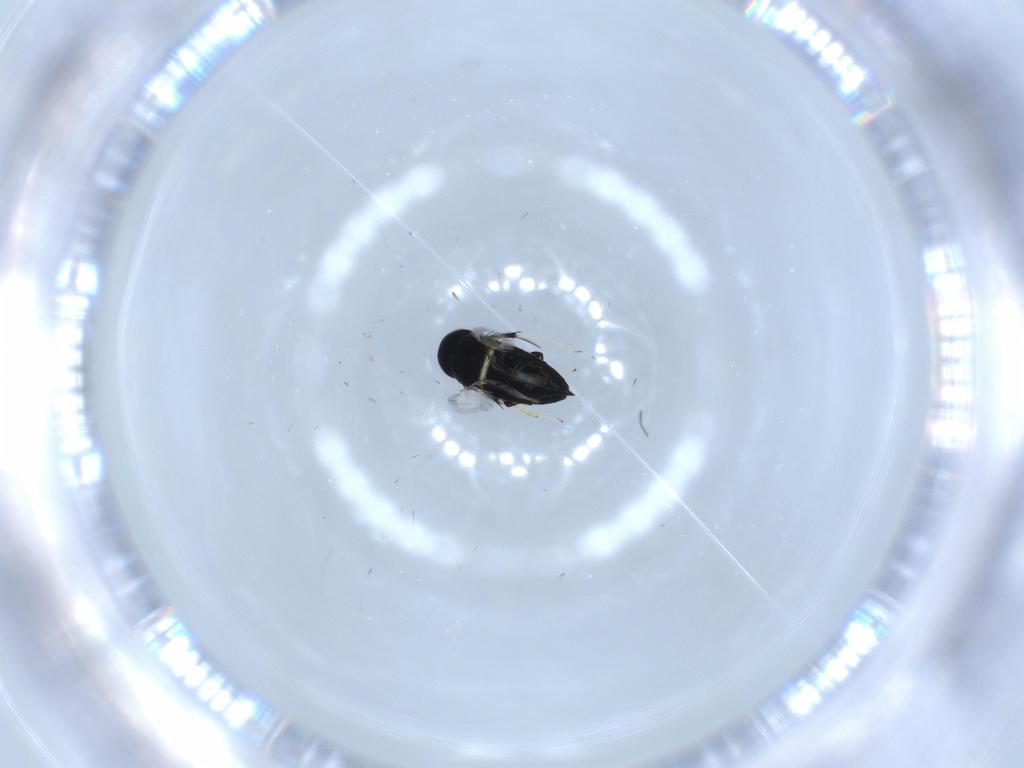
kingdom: Animalia
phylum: Arthropoda
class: Insecta
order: Hymenoptera
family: Signiphoridae
